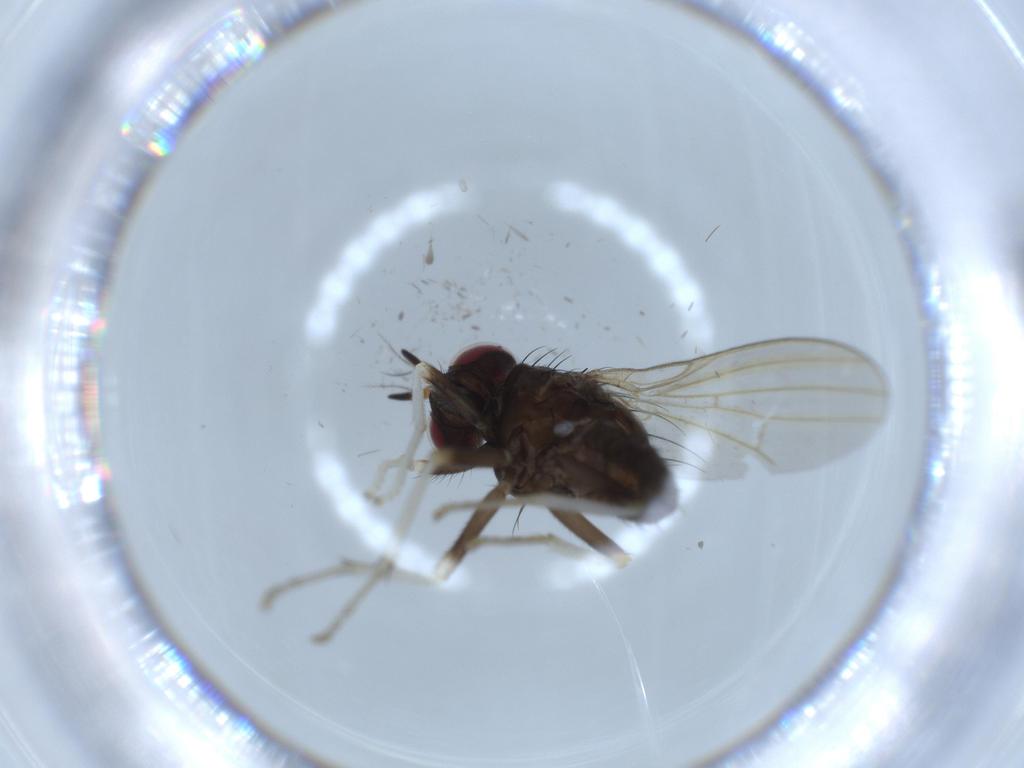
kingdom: Animalia
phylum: Arthropoda
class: Insecta
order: Diptera
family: Lauxaniidae
